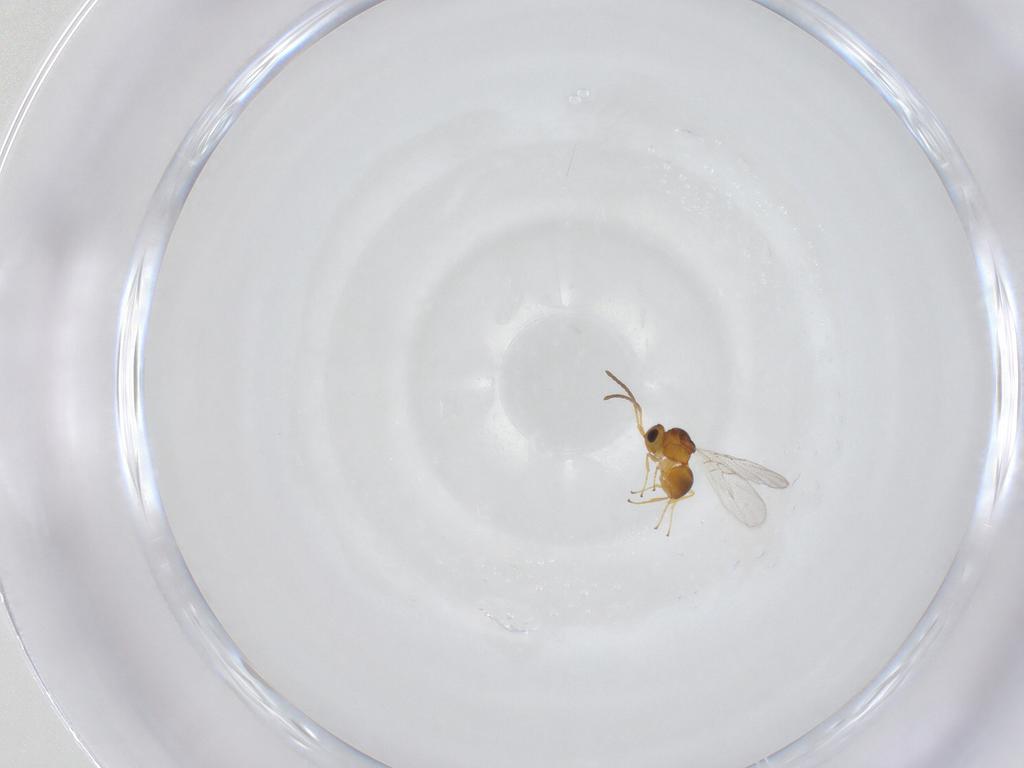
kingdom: Animalia
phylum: Arthropoda
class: Insecta
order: Hymenoptera
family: Figitidae
